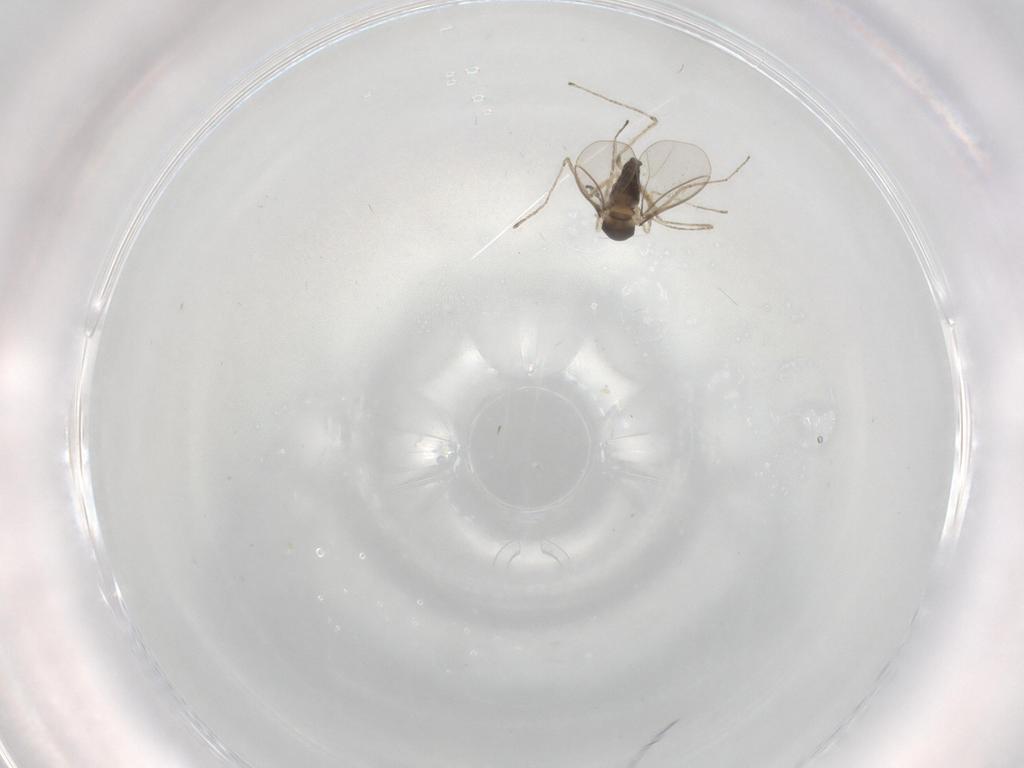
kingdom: Animalia
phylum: Arthropoda
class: Insecta
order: Diptera
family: Cecidomyiidae
